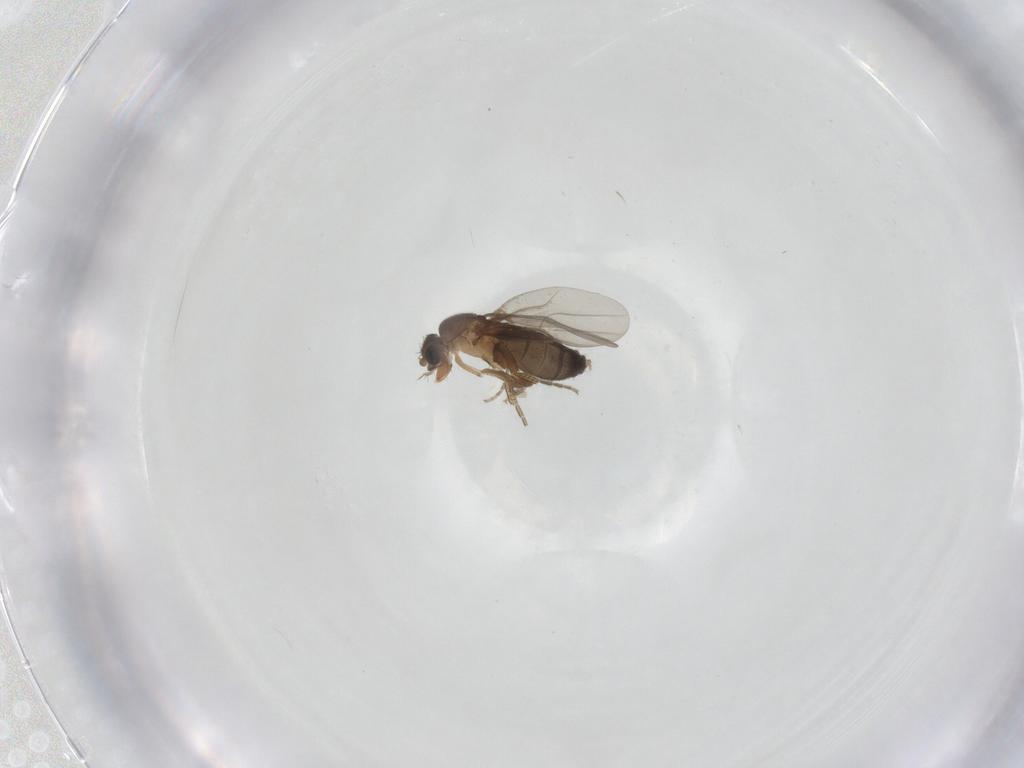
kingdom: Animalia
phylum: Arthropoda
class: Insecta
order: Diptera
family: Phoridae
